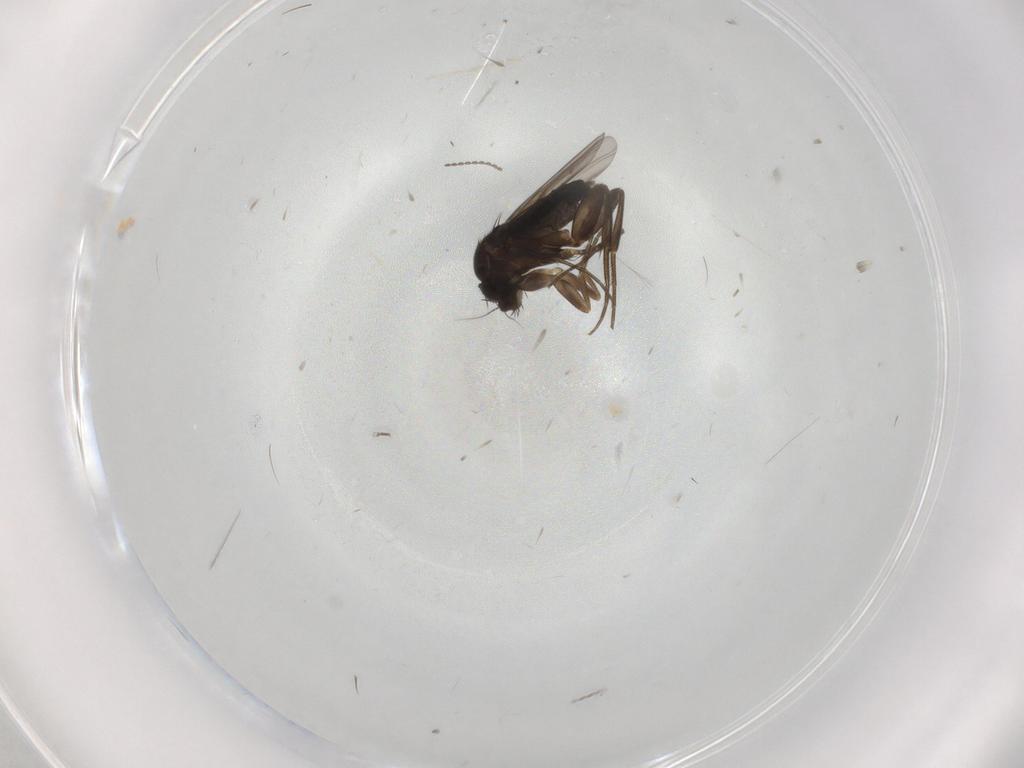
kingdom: Animalia
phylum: Arthropoda
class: Insecta
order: Diptera
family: Cecidomyiidae
